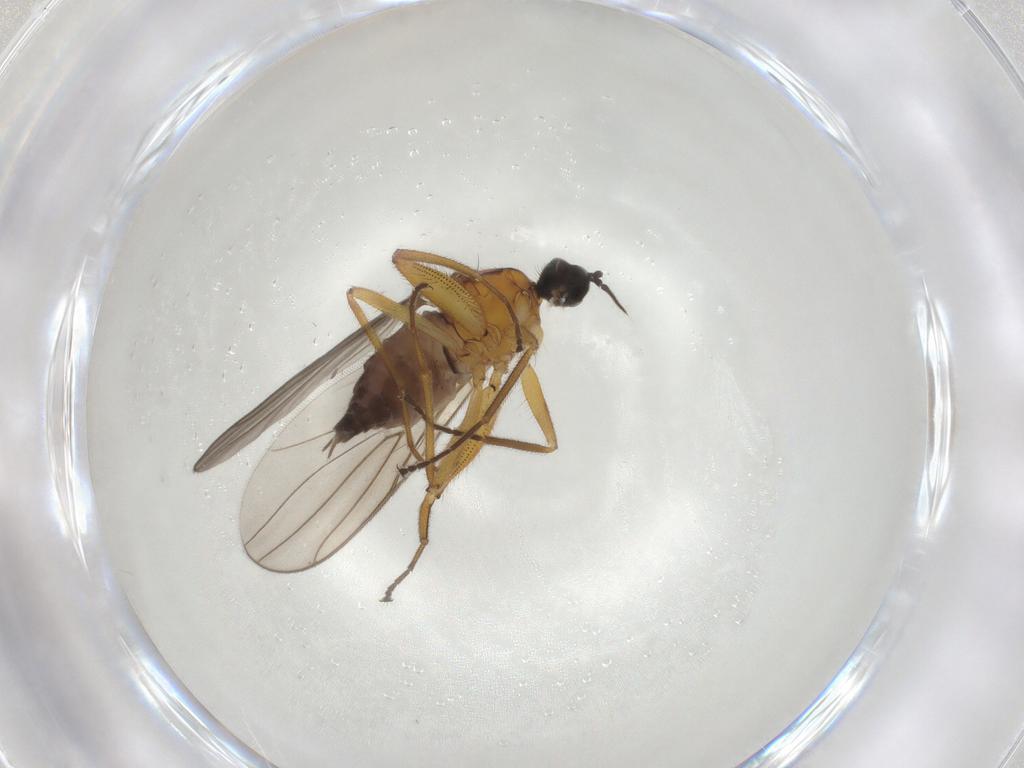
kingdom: Animalia
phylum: Arthropoda
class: Insecta
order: Diptera
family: Hybotidae
